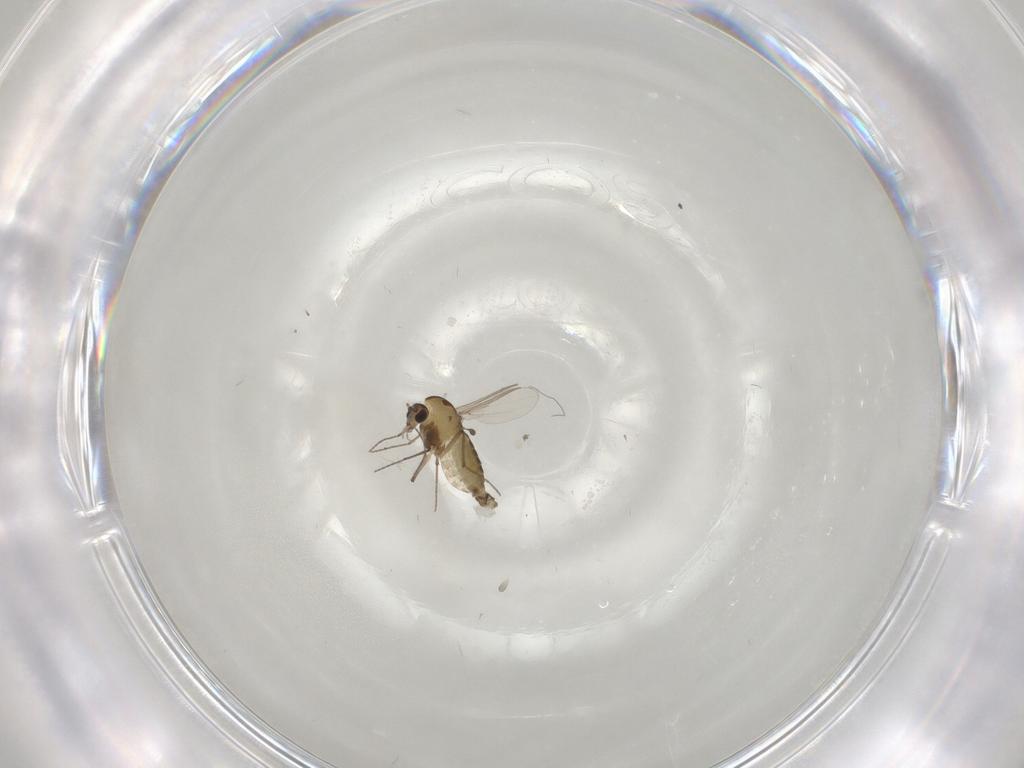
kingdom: Animalia
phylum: Arthropoda
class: Insecta
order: Diptera
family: Chironomidae
